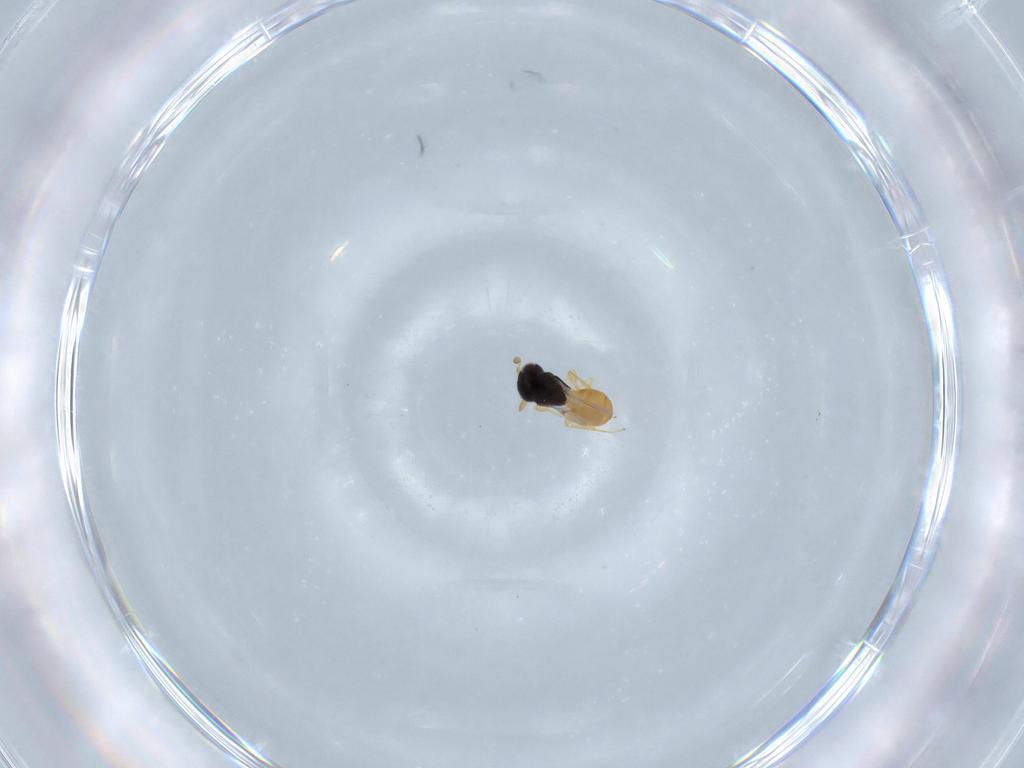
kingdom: Animalia
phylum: Arthropoda
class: Insecta
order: Hymenoptera
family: Scelionidae
